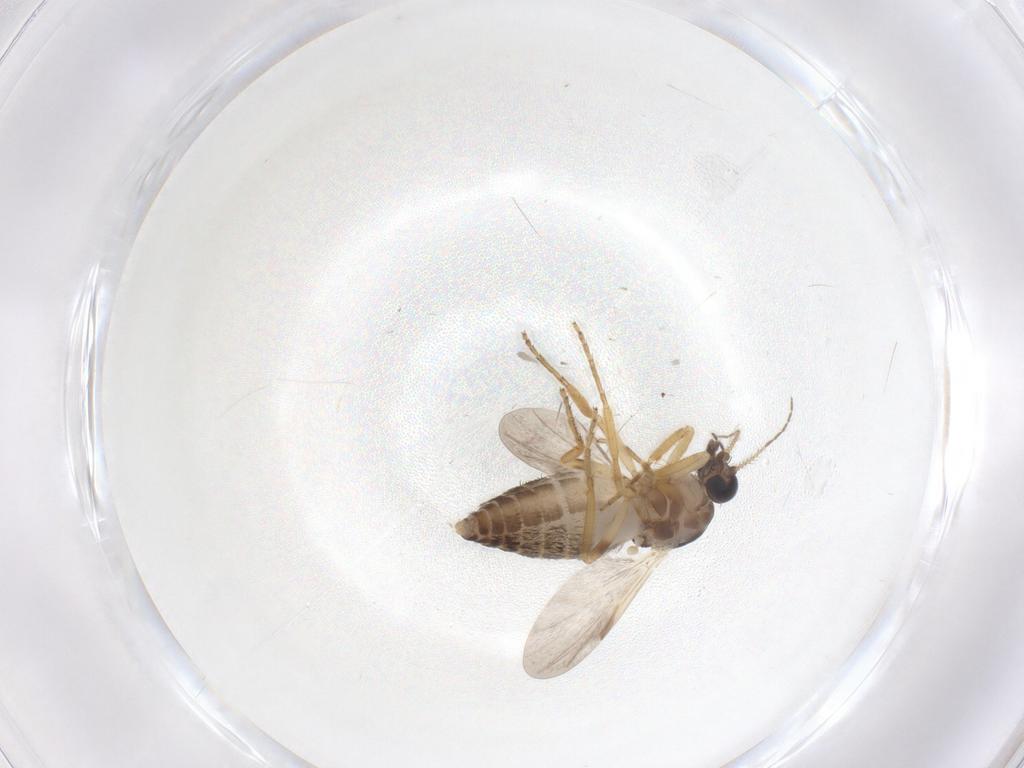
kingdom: Animalia
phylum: Arthropoda
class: Insecta
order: Diptera
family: Ceratopogonidae
